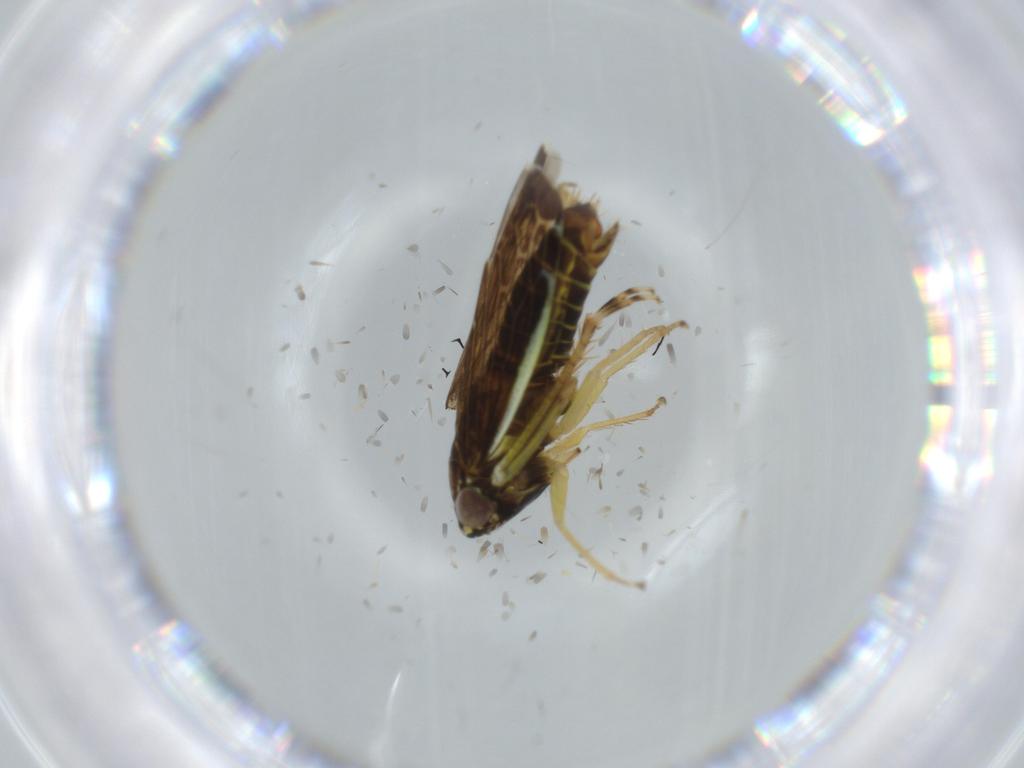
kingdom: Animalia
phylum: Arthropoda
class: Insecta
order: Hemiptera
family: Cicadellidae
